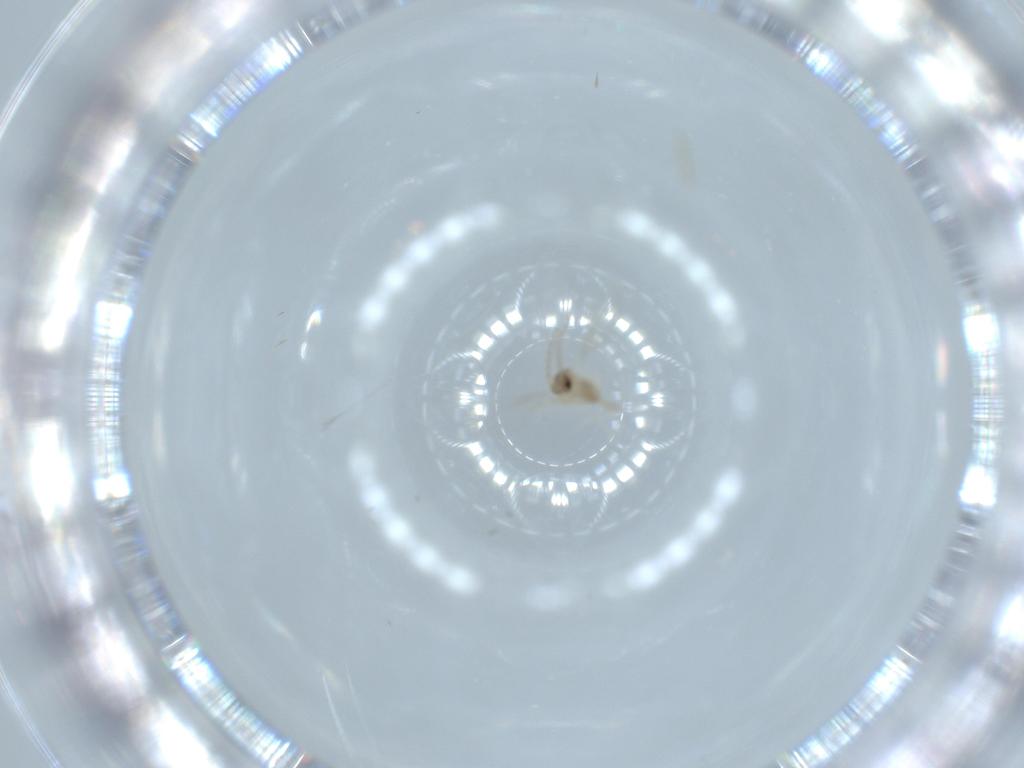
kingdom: Animalia
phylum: Arthropoda
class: Insecta
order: Diptera
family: Cecidomyiidae
